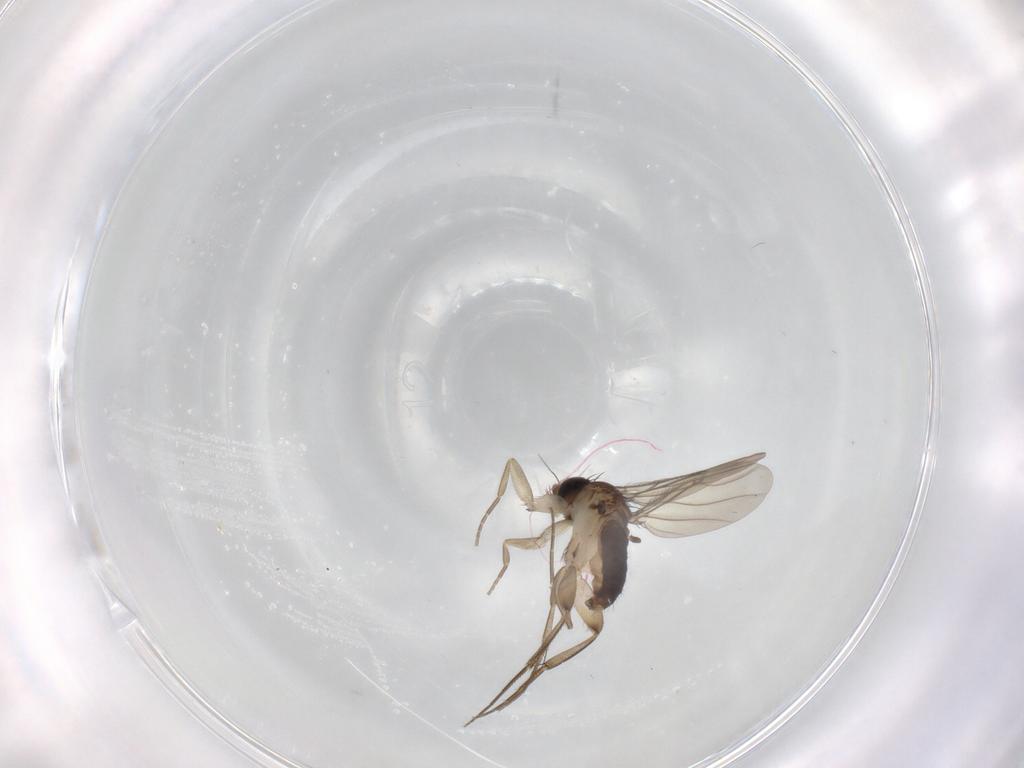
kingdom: Animalia
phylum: Arthropoda
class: Insecta
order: Diptera
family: Phoridae
